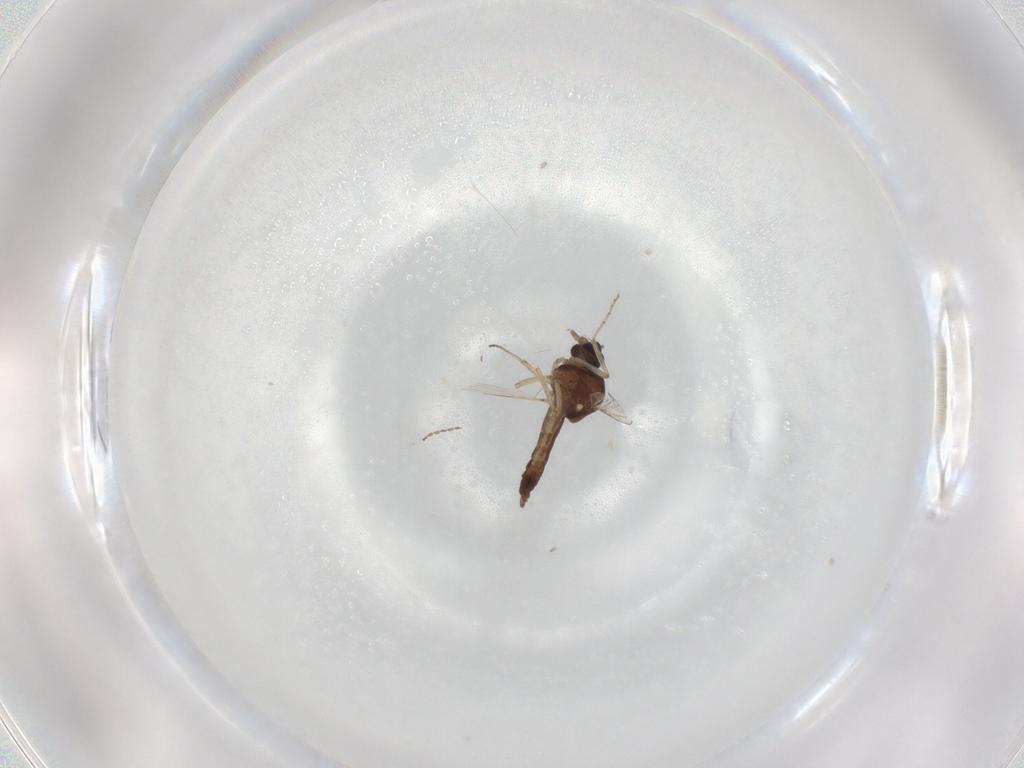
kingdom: Animalia
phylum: Arthropoda
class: Insecta
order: Diptera
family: Ceratopogonidae
